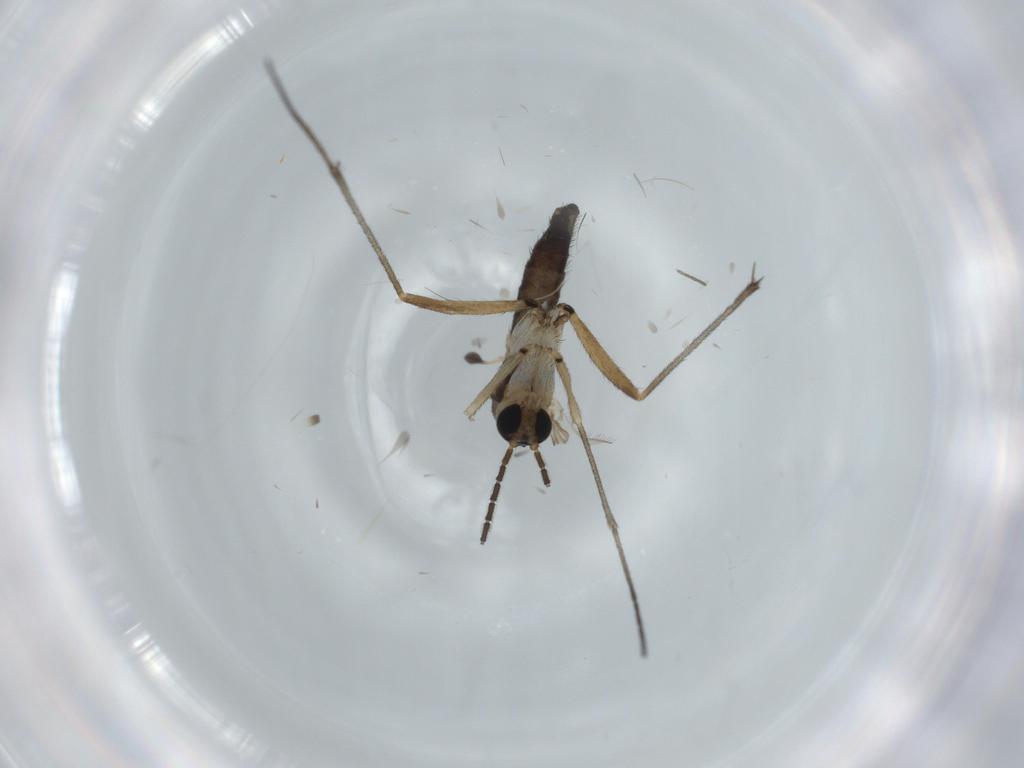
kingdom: Animalia
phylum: Arthropoda
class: Insecta
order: Diptera
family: Sciaridae
